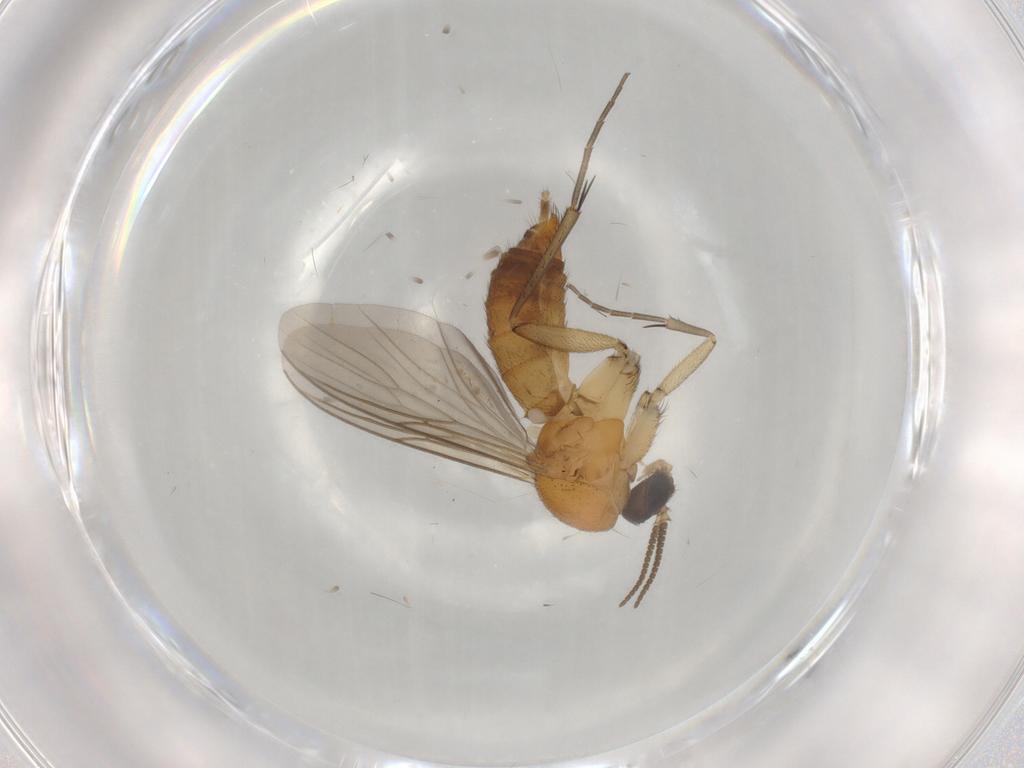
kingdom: Animalia
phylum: Arthropoda
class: Insecta
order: Diptera
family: Mycetophilidae
